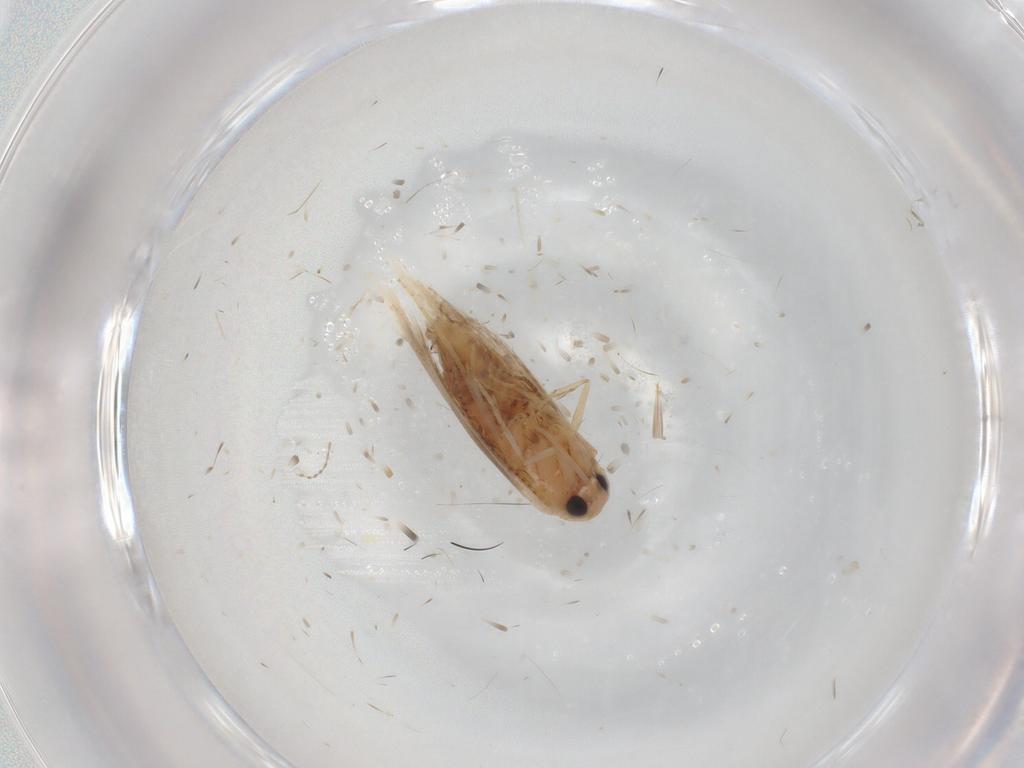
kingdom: Animalia
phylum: Arthropoda
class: Insecta
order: Lepidoptera
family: Bucculatricidae
